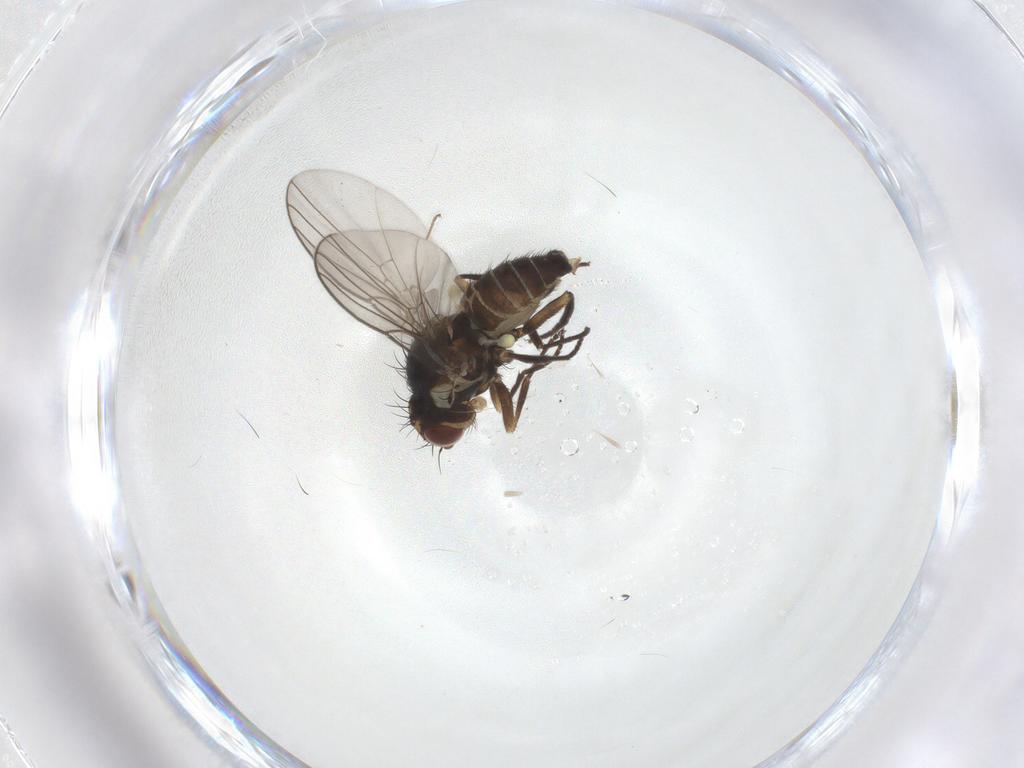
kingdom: Animalia
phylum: Arthropoda
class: Insecta
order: Diptera
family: Agromyzidae
